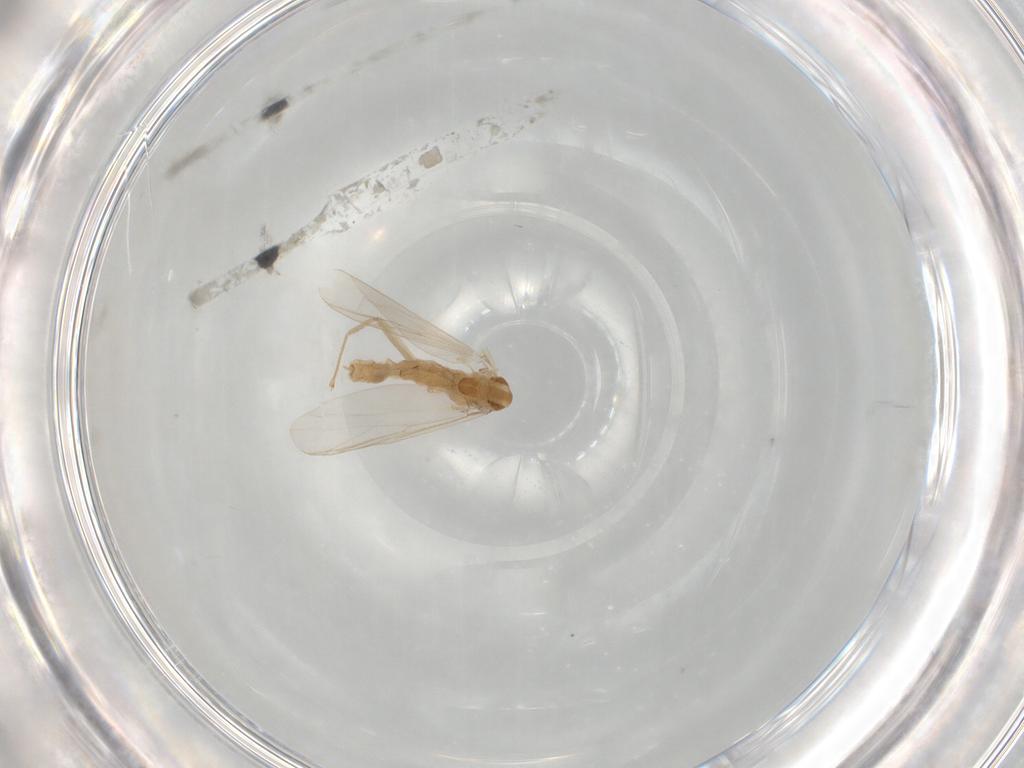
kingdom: Animalia
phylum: Arthropoda
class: Insecta
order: Diptera
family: Chironomidae
